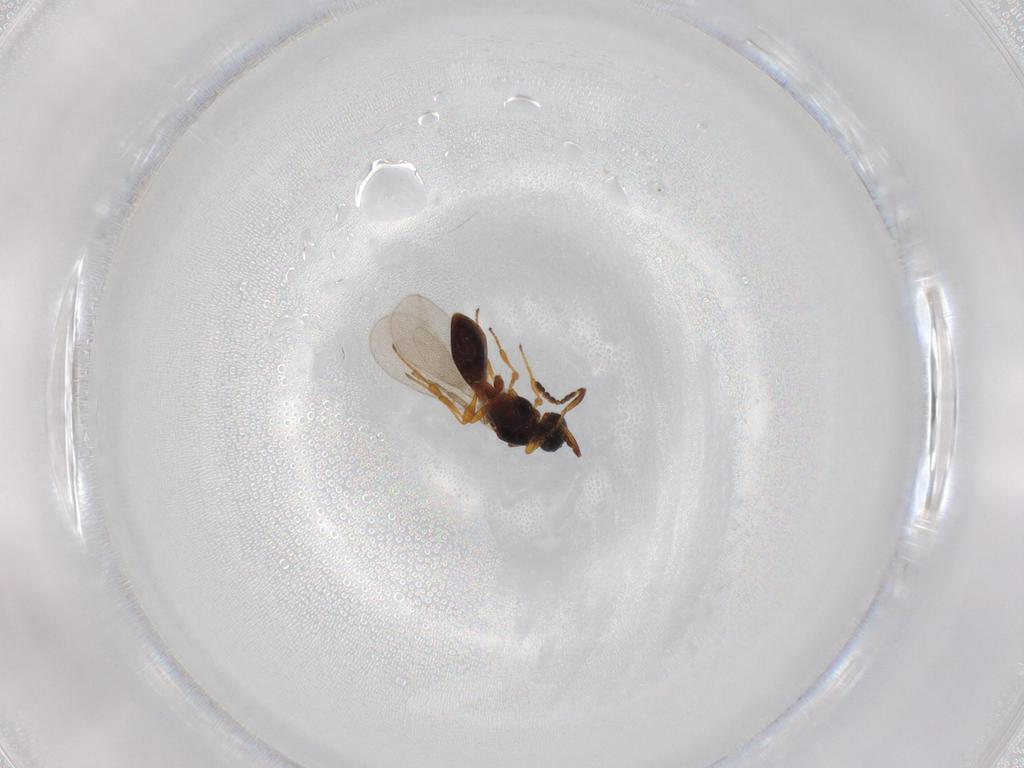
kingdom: Animalia
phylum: Arthropoda
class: Insecta
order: Hymenoptera
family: Platygastridae
